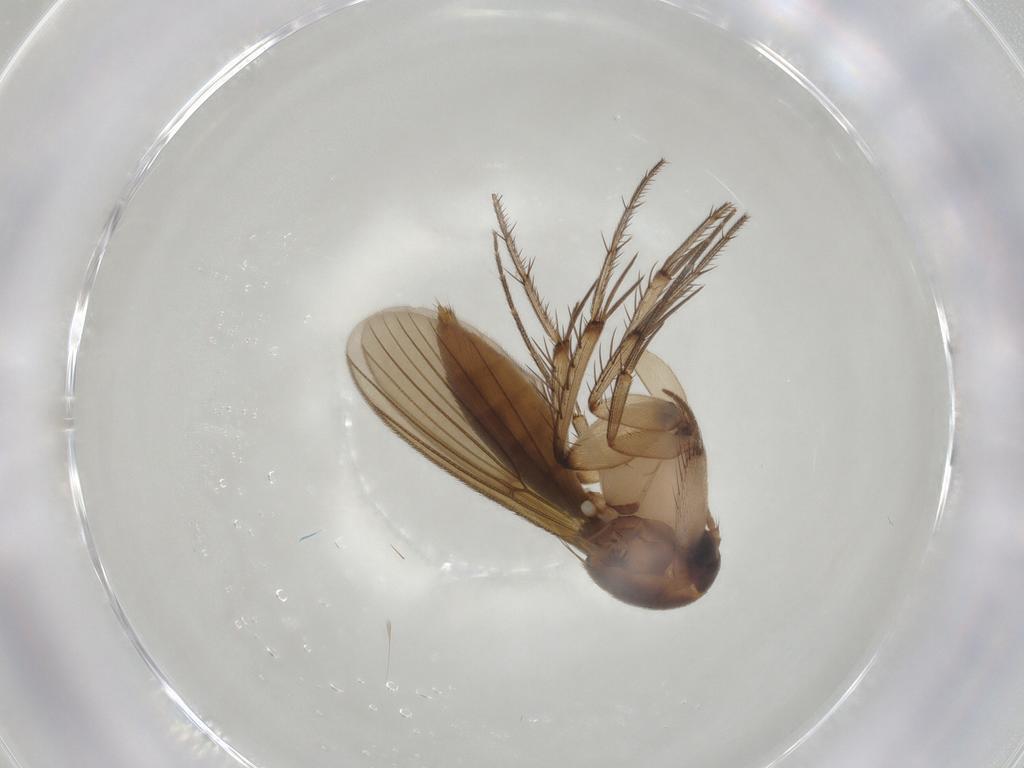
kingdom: Animalia
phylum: Arthropoda
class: Insecta
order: Diptera
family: Mycetophilidae
